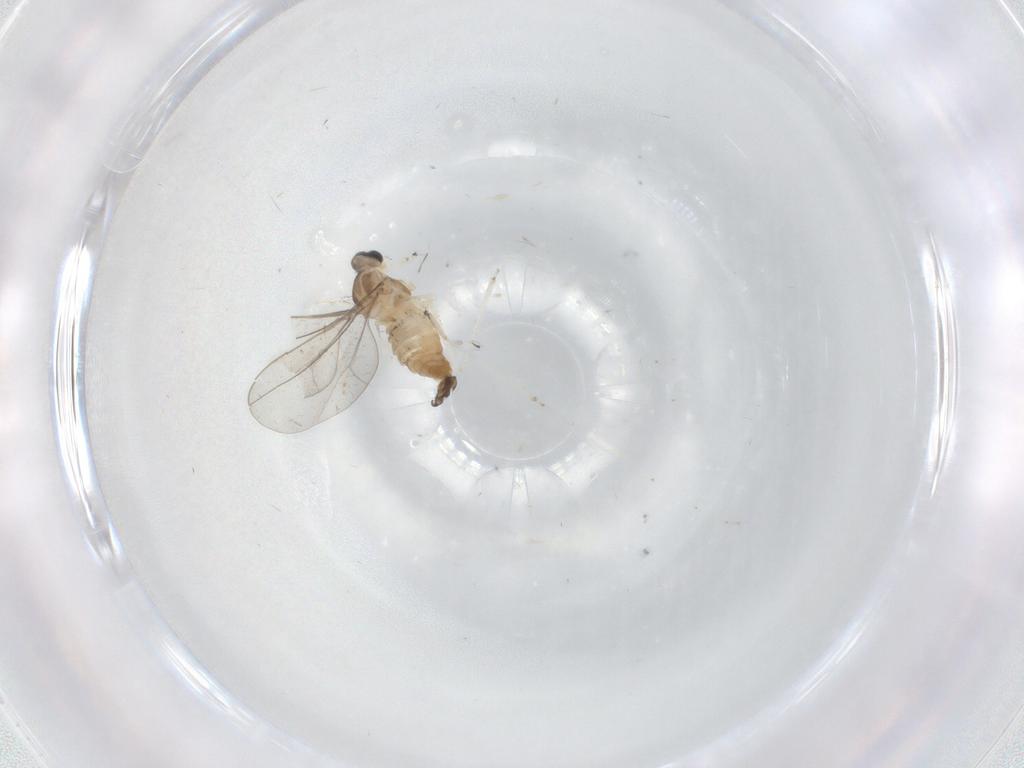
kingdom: Animalia
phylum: Arthropoda
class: Insecta
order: Diptera
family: Cecidomyiidae
